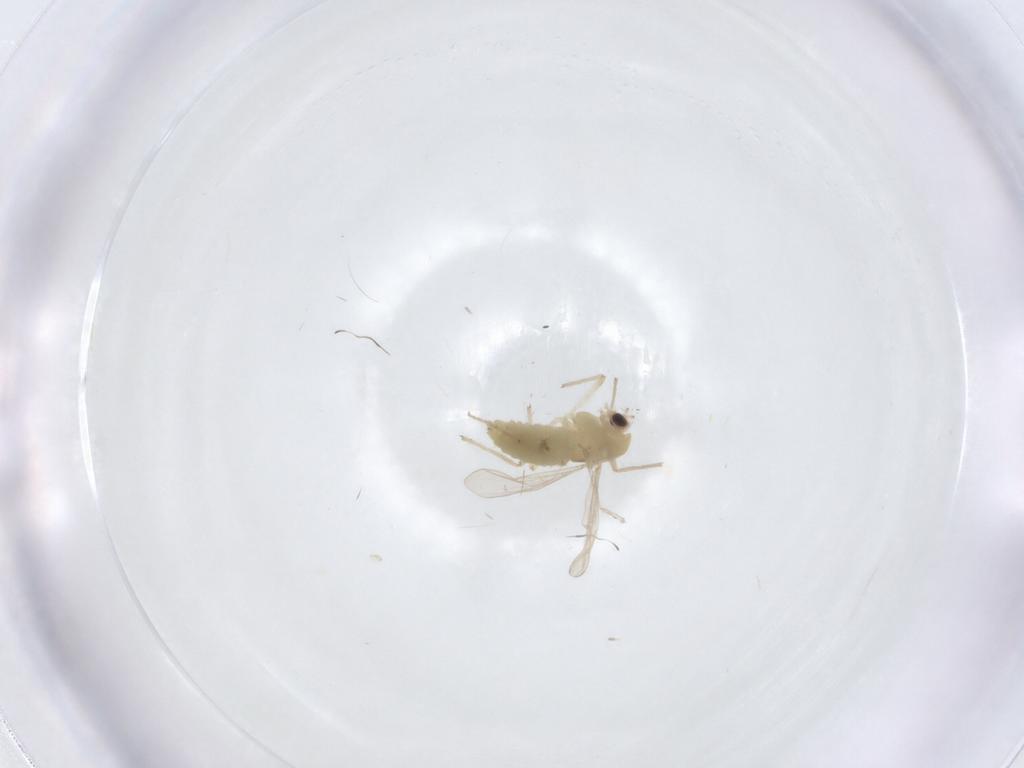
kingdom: Animalia
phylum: Arthropoda
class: Insecta
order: Diptera
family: Chironomidae
